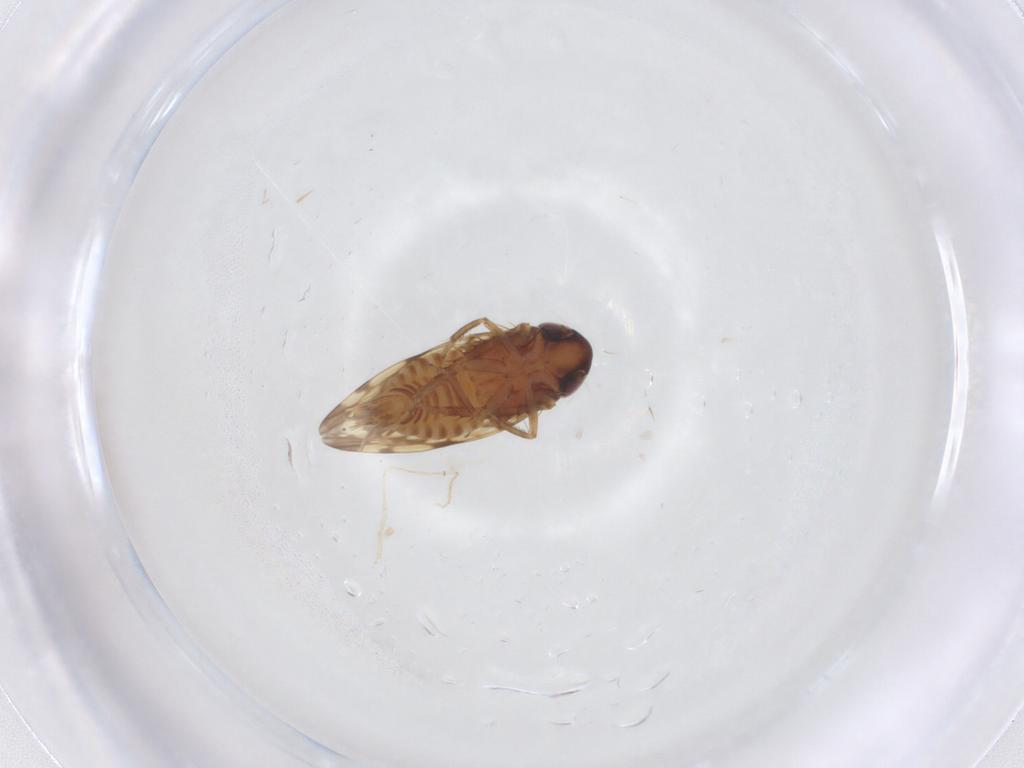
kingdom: Animalia
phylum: Arthropoda
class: Insecta
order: Hemiptera
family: Cicadellidae
